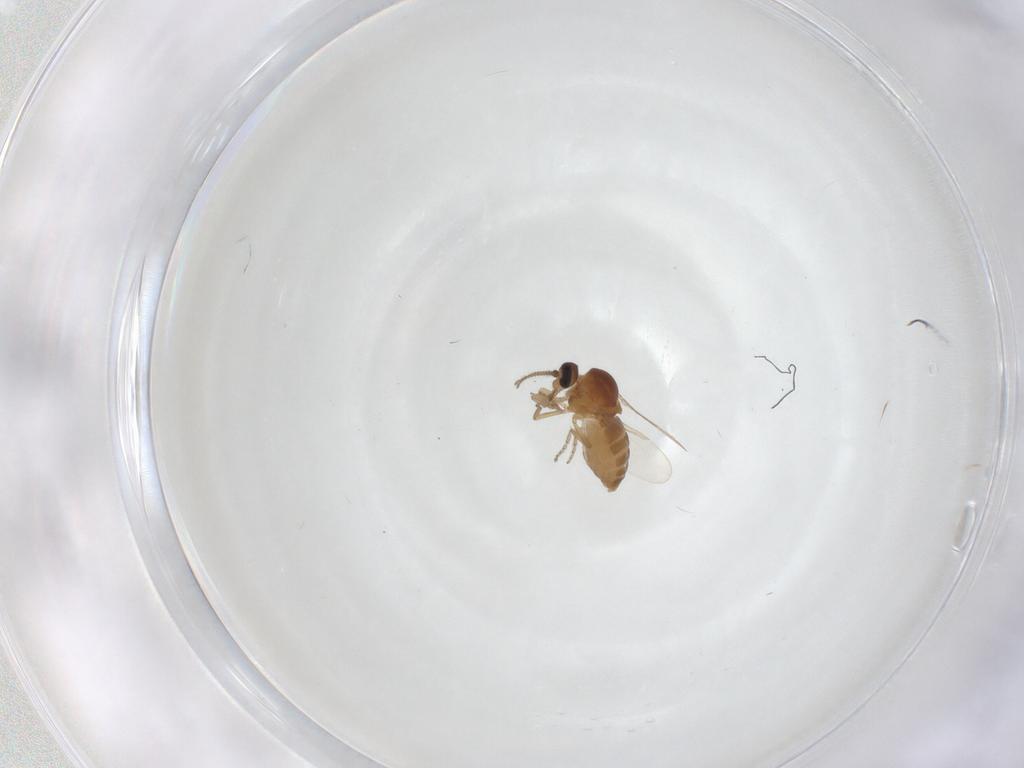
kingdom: Animalia
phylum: Arthropoda
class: Insecta
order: Diptera
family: Ceratopogonidae
